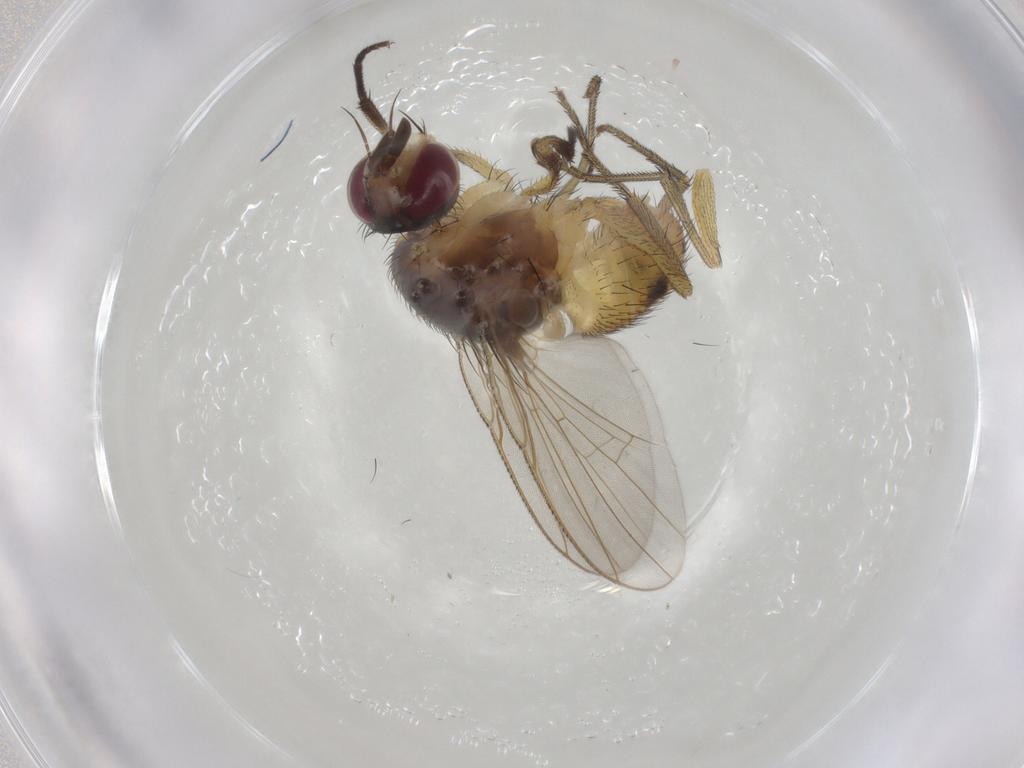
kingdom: Animalia
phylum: Arthropoda
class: Insecta
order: Diptera
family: Muscidae
